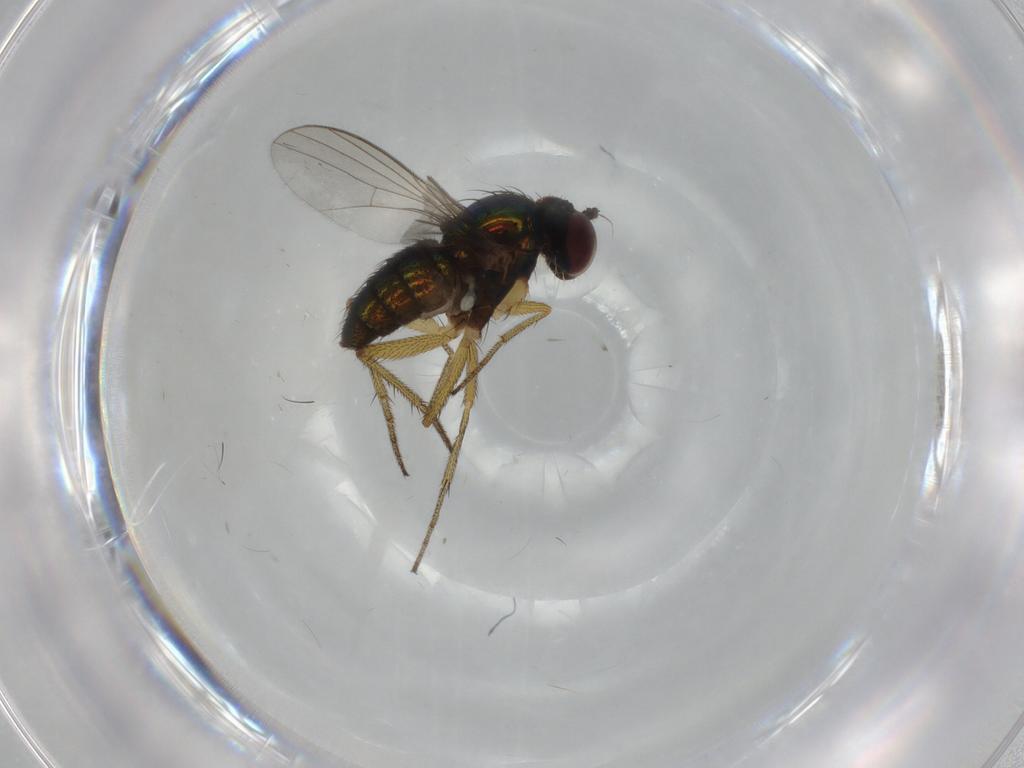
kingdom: Animalia
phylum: Arthropoda
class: Insecta
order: Diptera
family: Dolichopodidae
